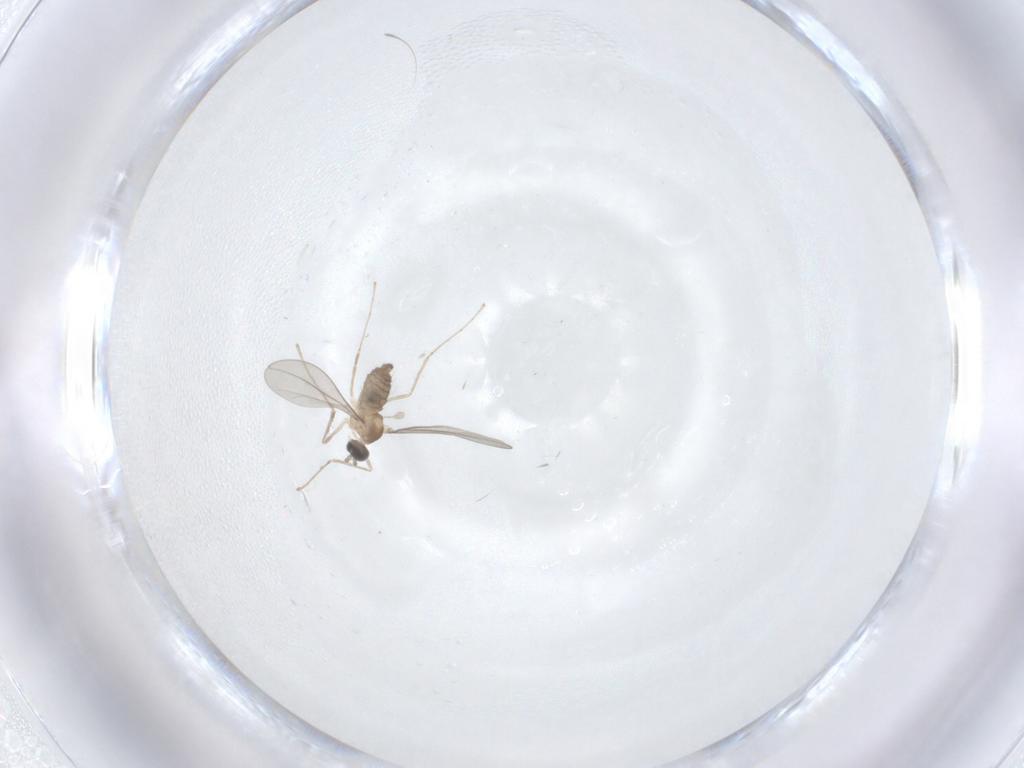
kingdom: Animalia
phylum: Arthropoda
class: Insecta
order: Diptera
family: Cecidomyiidae
